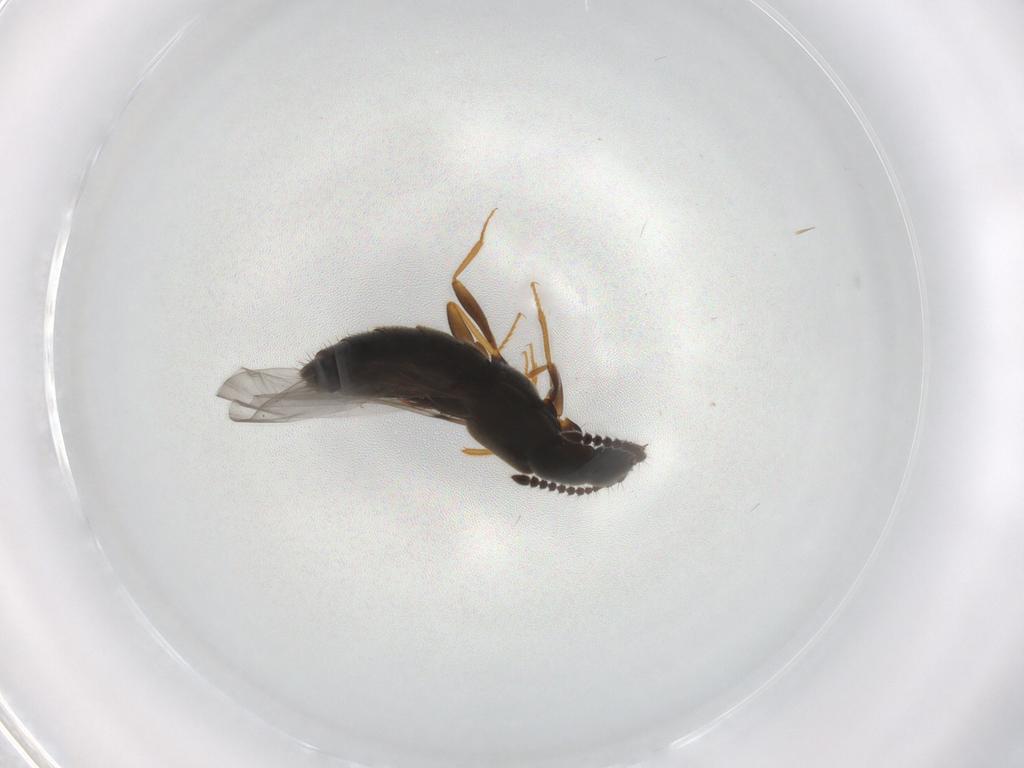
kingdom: Animalia
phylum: Arthropoda
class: Insecta
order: Coleoptera
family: Staphylinidae
